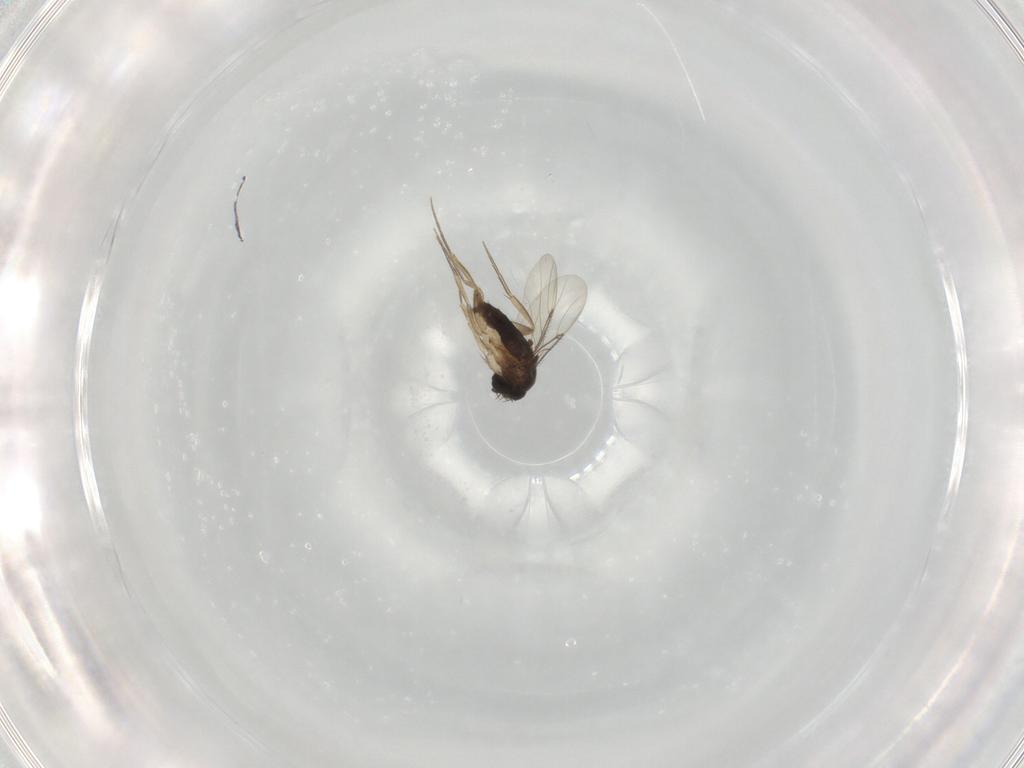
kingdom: Animalia
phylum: Arthropoda
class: Insecta
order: Diptera
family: Phoridae
